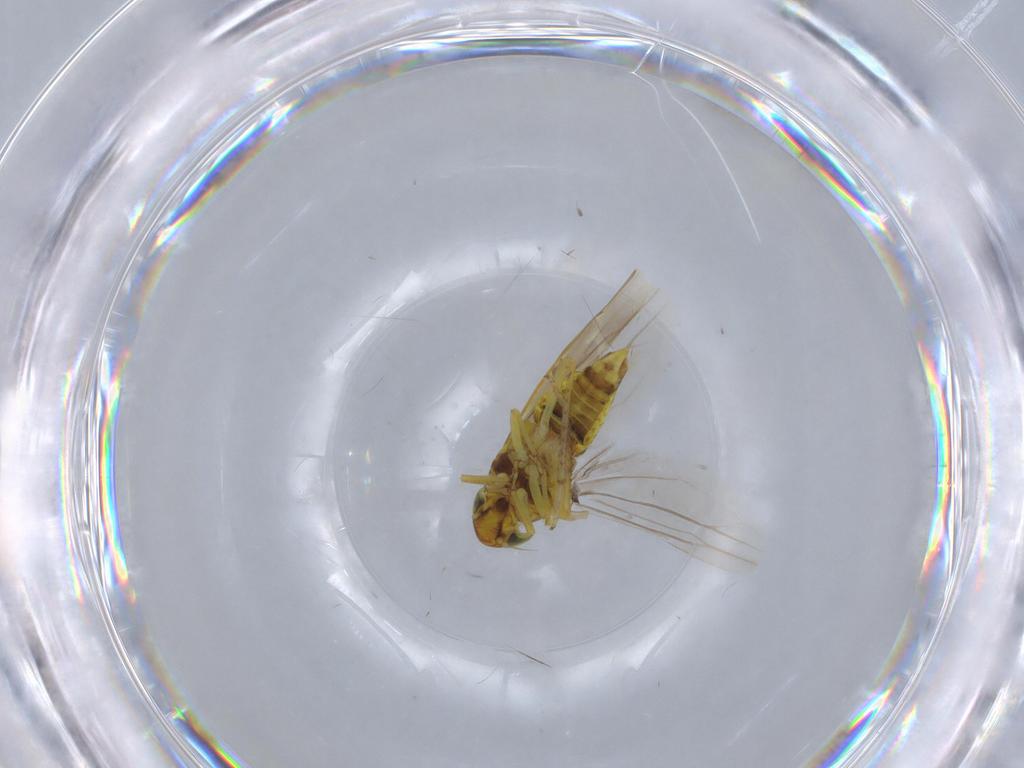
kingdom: Animalia
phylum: Arthropoda
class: Insecta
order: Hemiptera
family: Cicadellidae
